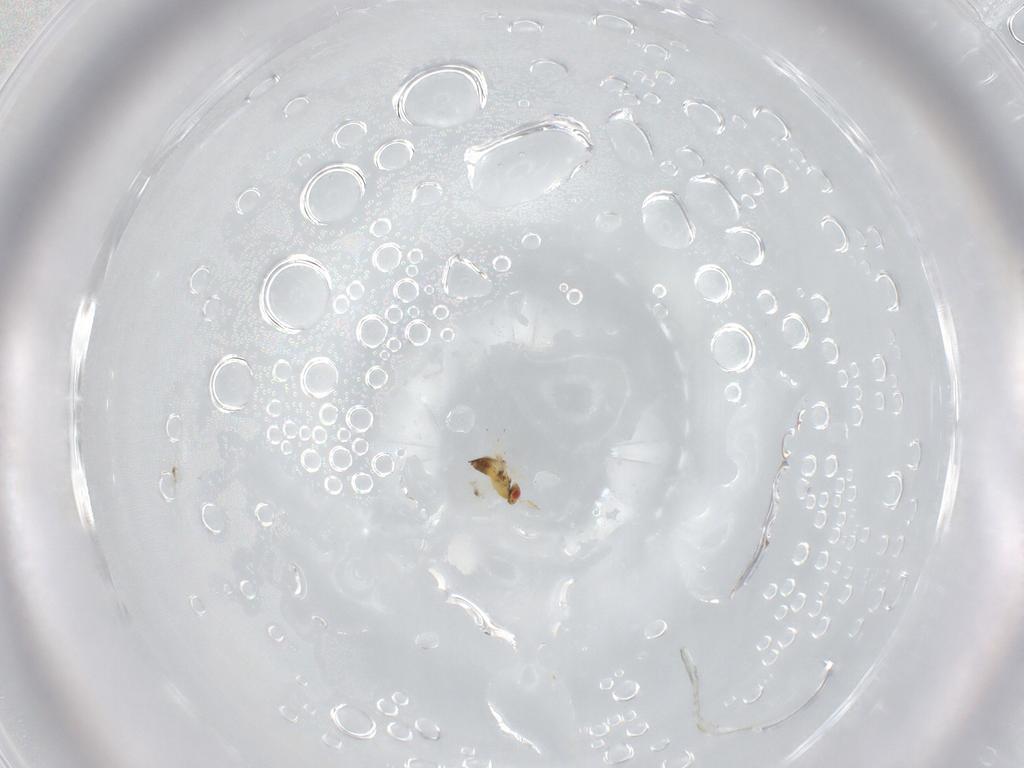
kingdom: Animalia
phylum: Arthropoda
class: Insecta
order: Hymenoptera
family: Trichogrammatidae
